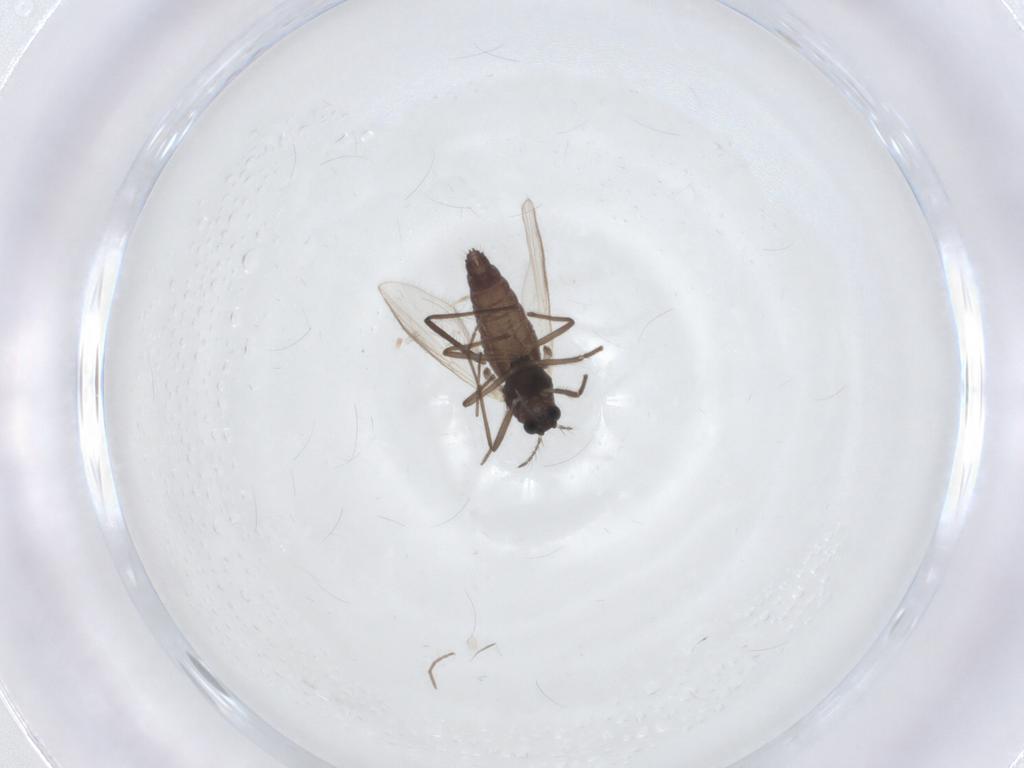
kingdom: Animalia
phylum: Arthropoda
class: Insecta
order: Diptera
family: Chironomidae
